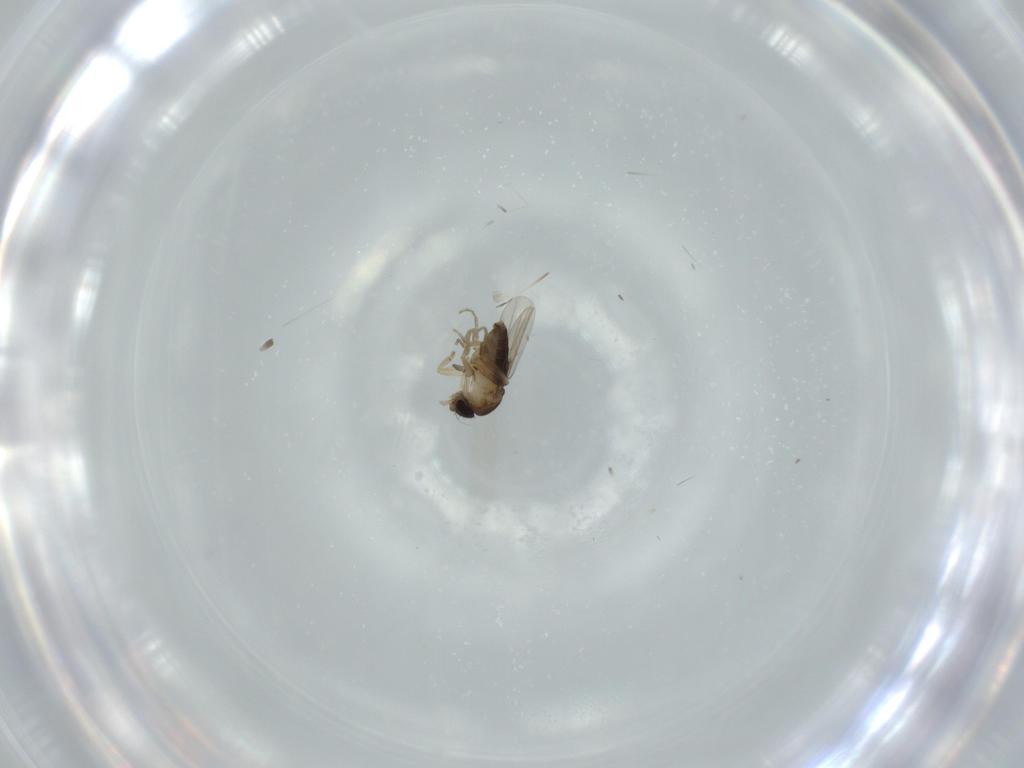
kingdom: Animalia
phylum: Arthropoda
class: Insecta
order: Diptera
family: Phoridae
